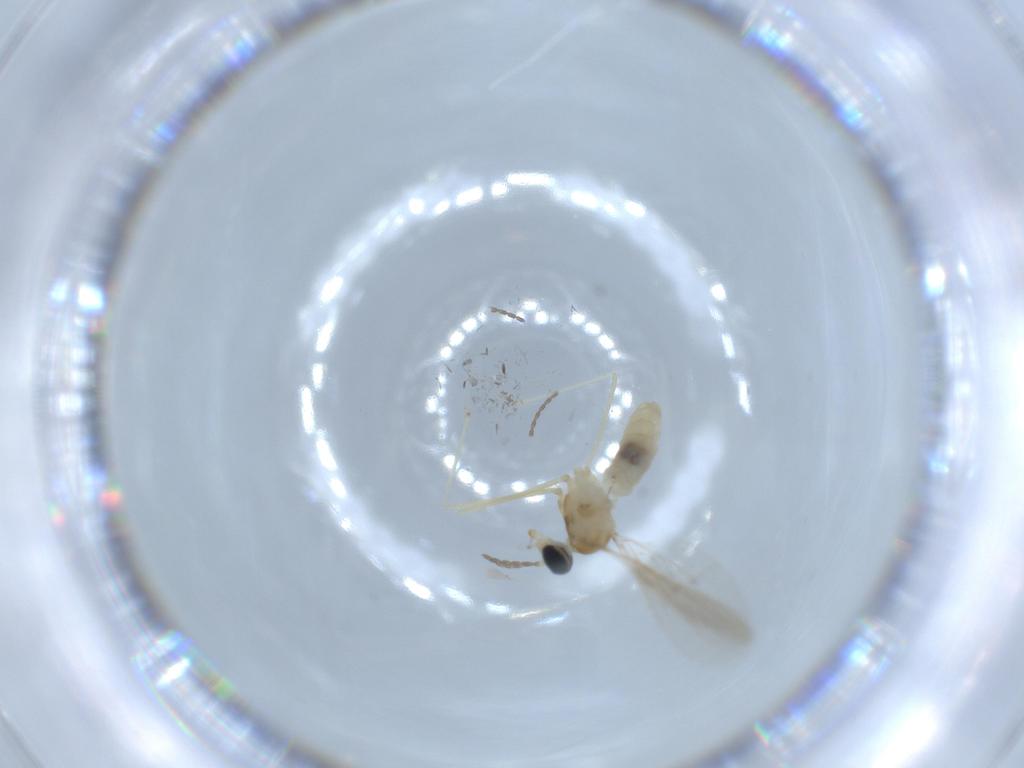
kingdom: Animalia
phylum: Arthropoda
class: Insecta
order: Diptera
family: Cecidomyiidae
